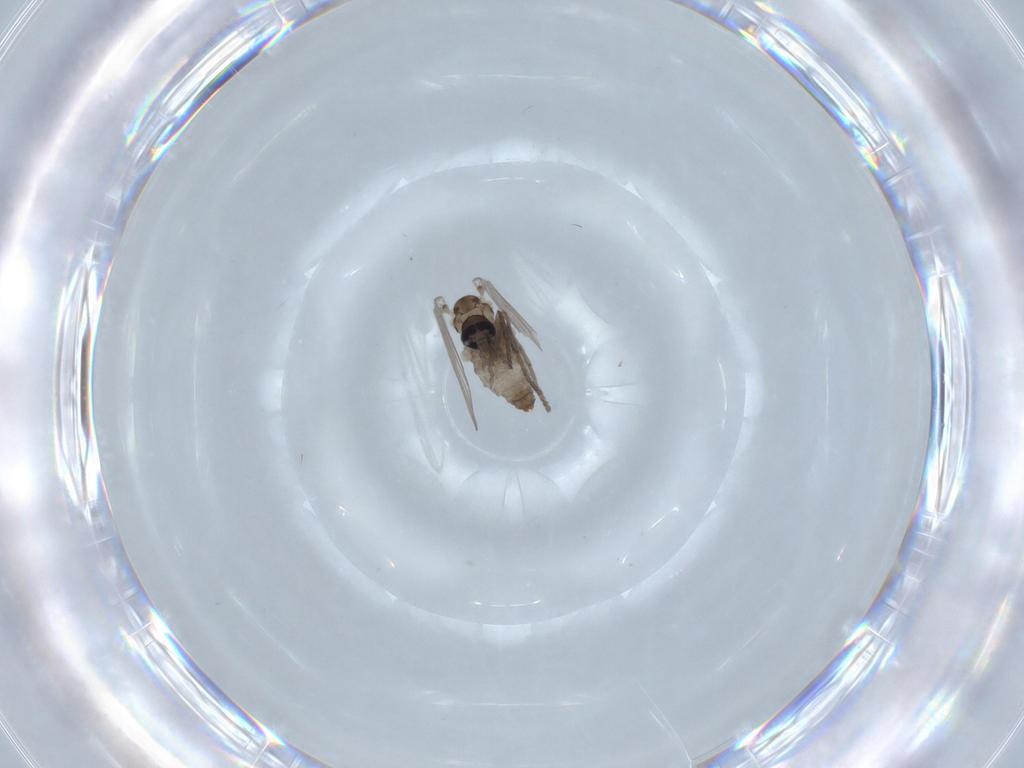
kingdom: Animalia
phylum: Arthropoda
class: Insecta
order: Diptera
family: Psychodidae
